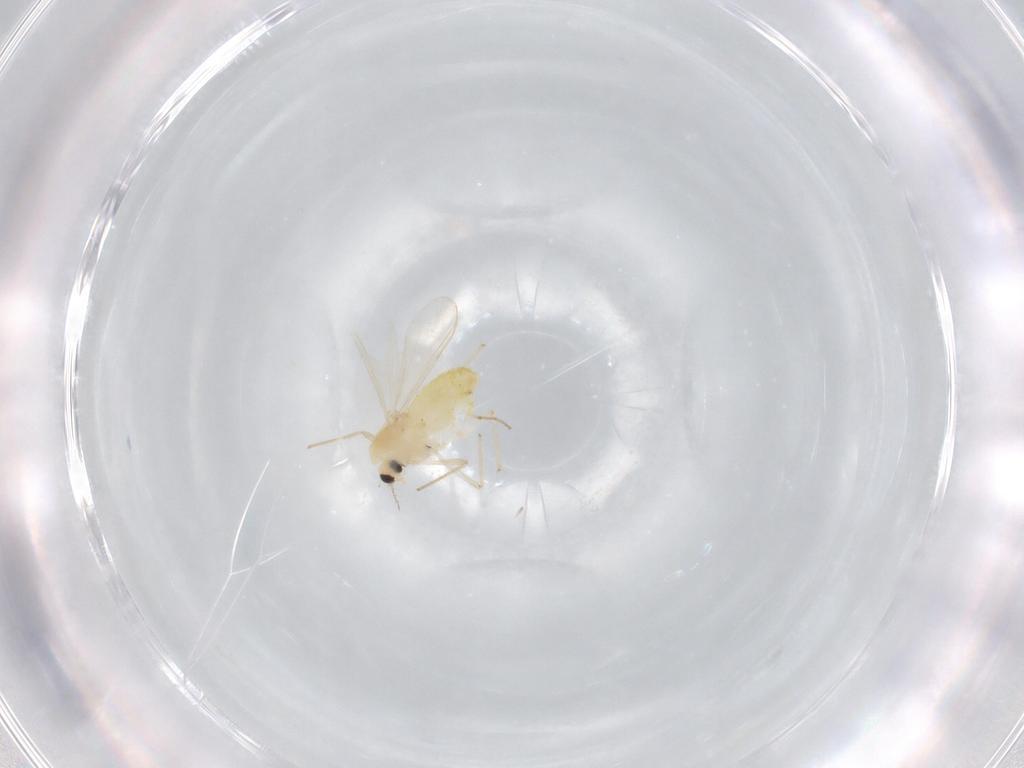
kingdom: Animalia
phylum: Arthropoda
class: Insecta
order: Diptera
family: Chironomidae
